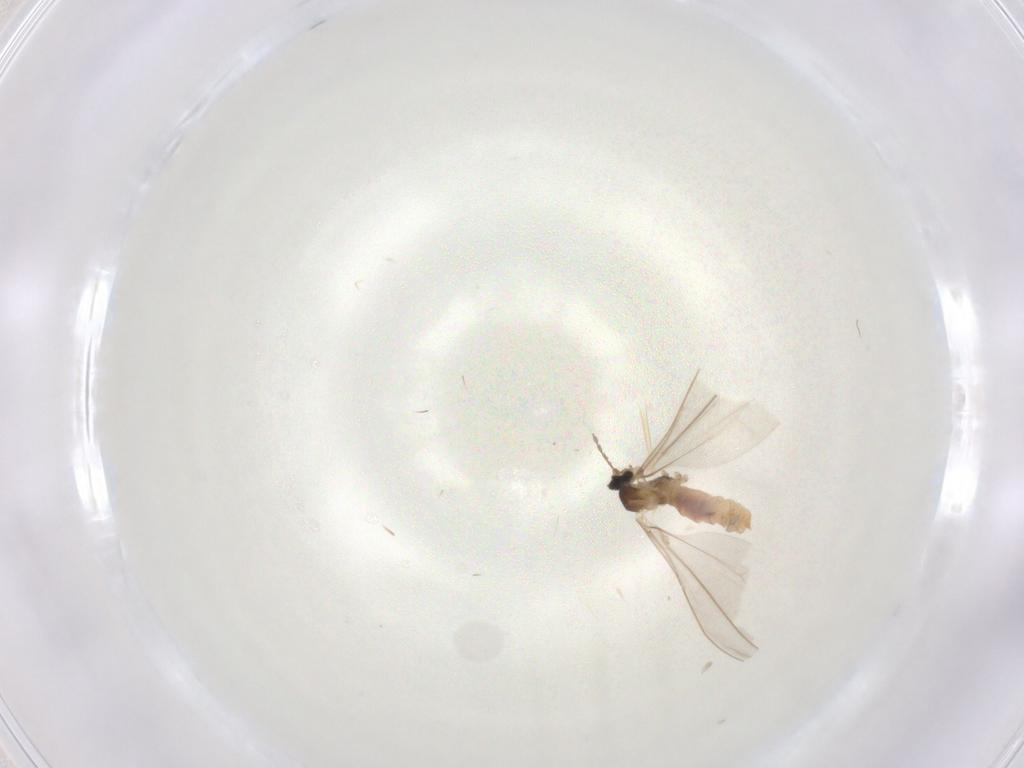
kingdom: Animalia
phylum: Arthropoda
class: Insecta
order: Diptera
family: Cecidomyiidae
